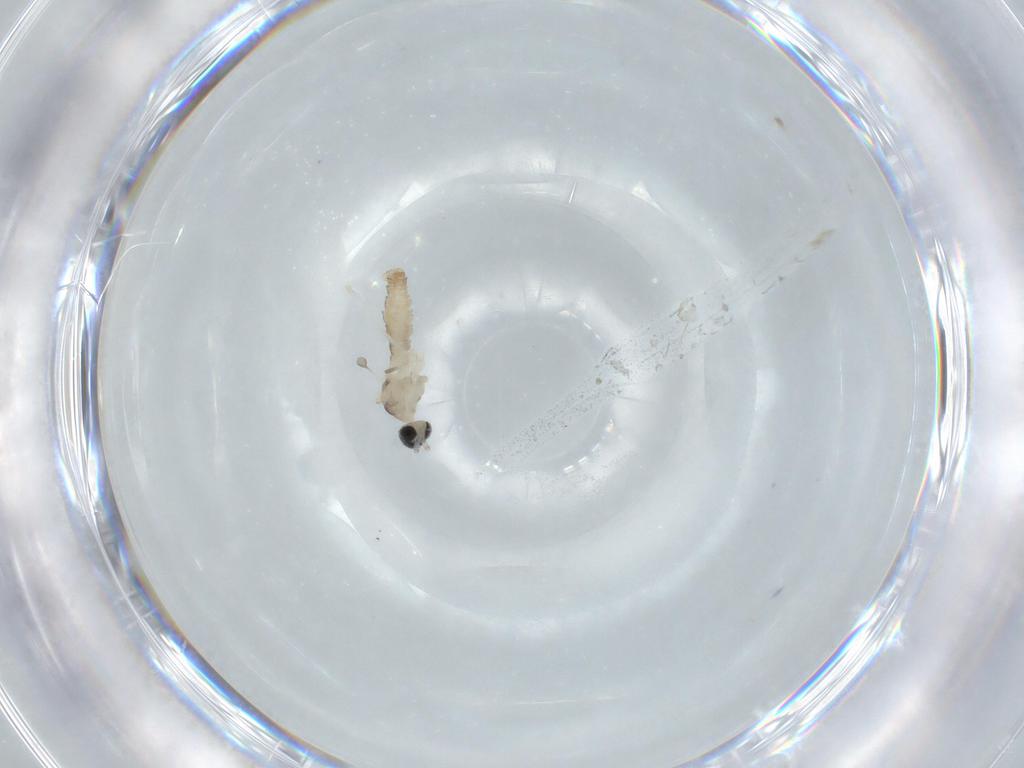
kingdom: Animalia
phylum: Arthropoda
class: Insecta
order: Diptera
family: Cecidomyiidae
